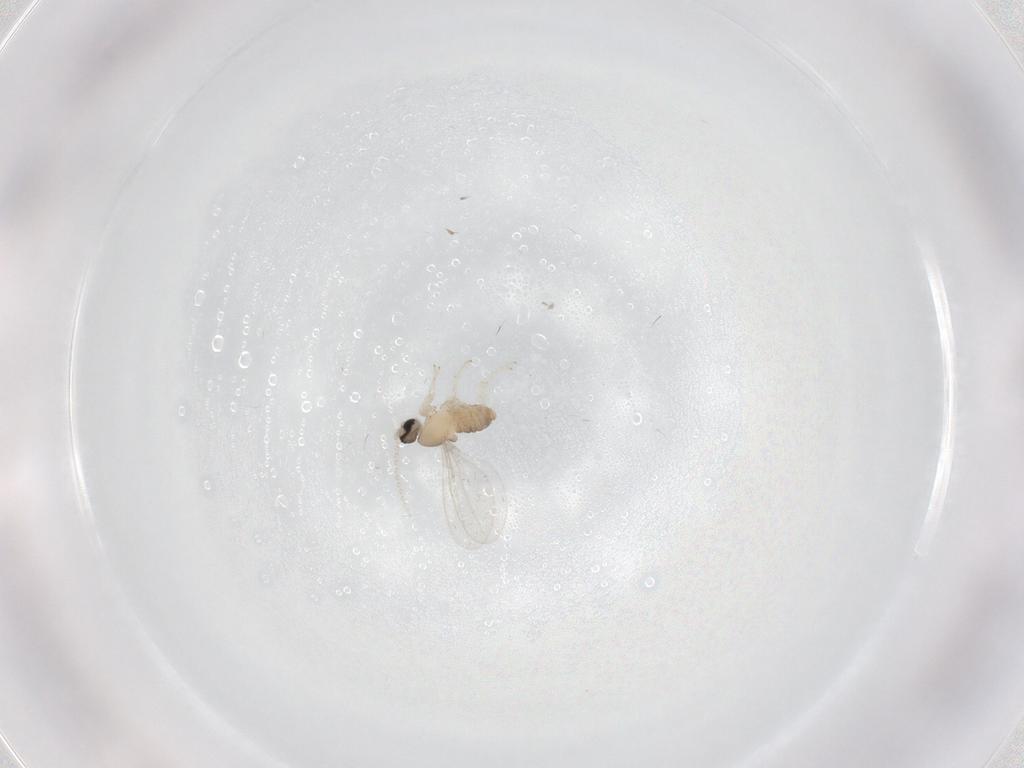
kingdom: Animalia
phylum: Arthropoda
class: Insecta
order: Diptera
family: Cecidomyiidae
